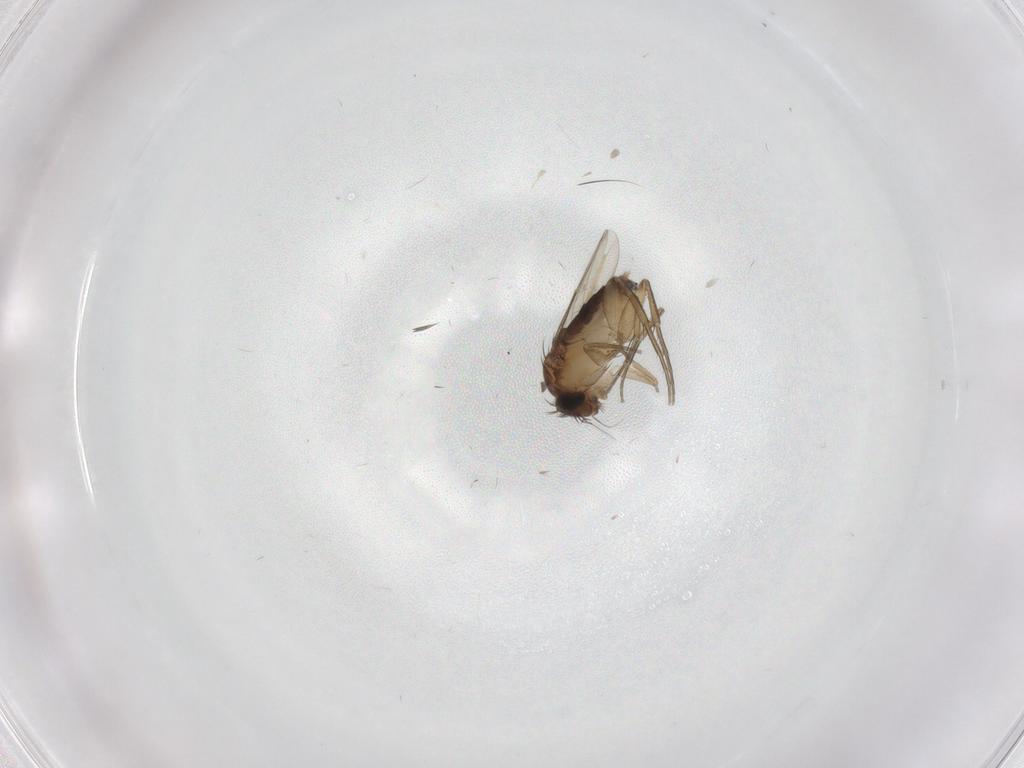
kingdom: Animalia
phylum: Arthropoda
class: Insecta
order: Diptera
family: Phoridae
